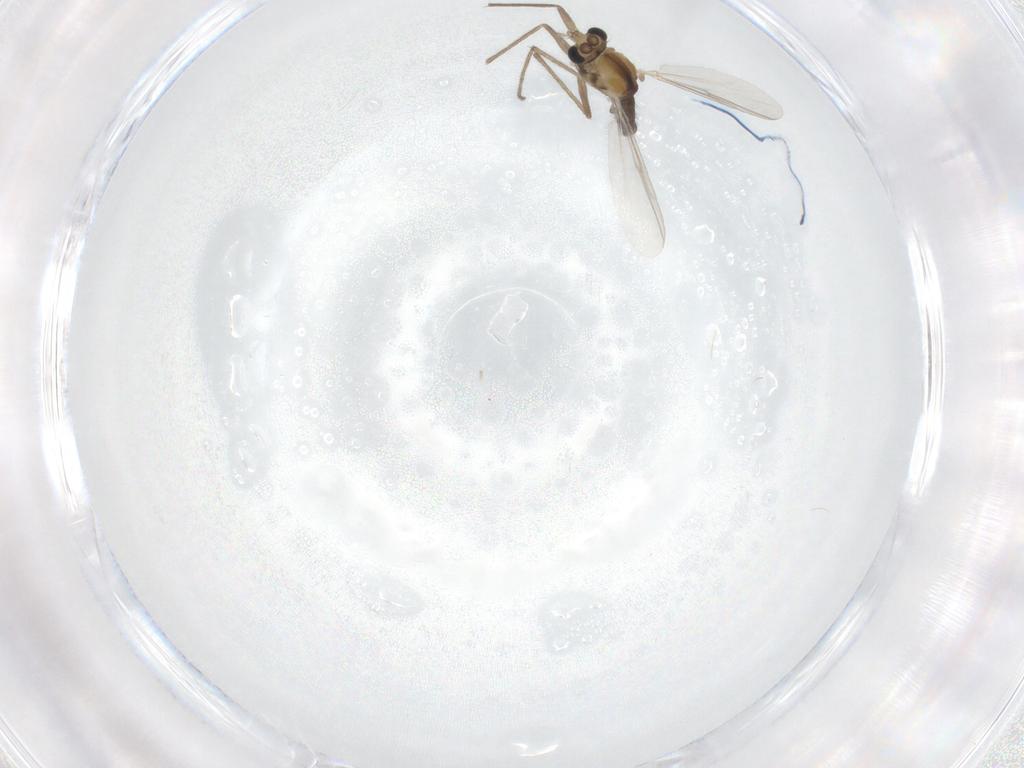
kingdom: Animalia
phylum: Arthropoda
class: Insecta
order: Diptera
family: Chironomidae
